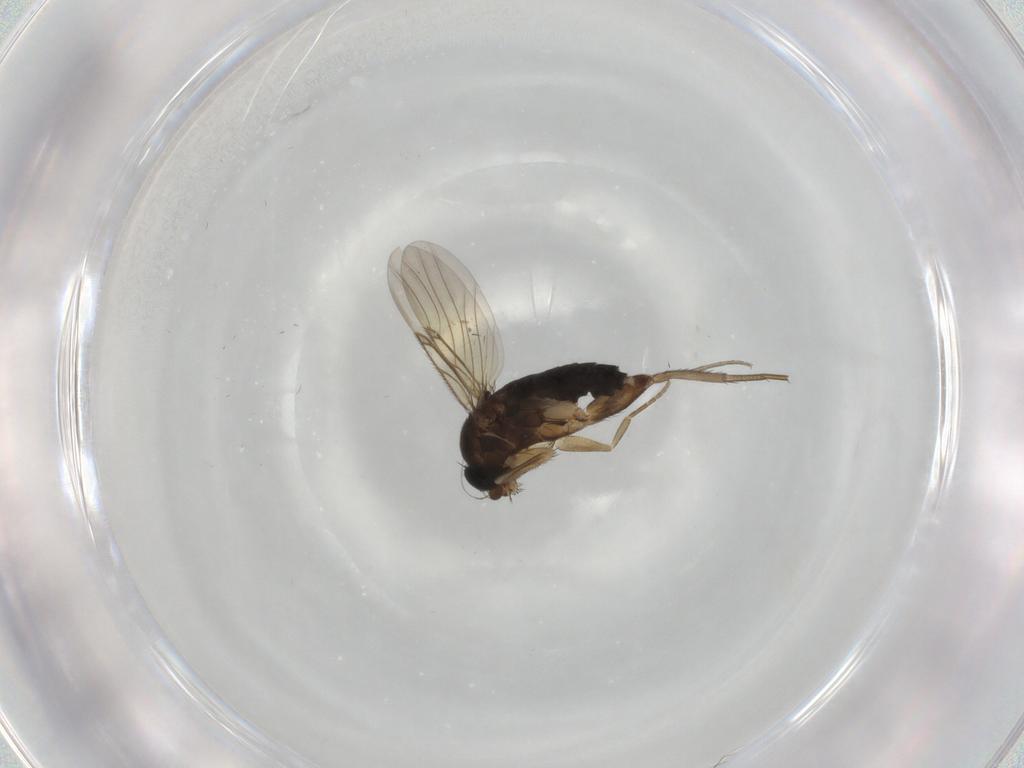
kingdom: Animalia
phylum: Arthropoda
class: Insecta
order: Diptera
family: Phoridae
